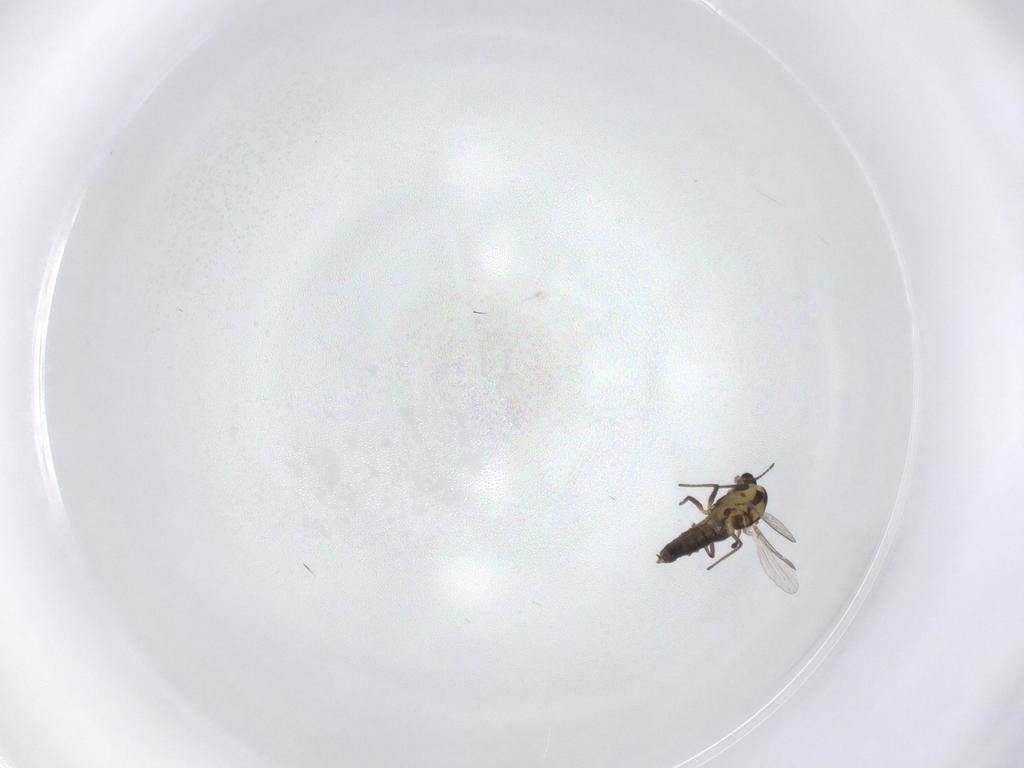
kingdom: Animalia
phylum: Arthropoda
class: Insecta
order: Diptera
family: Chironomidae
